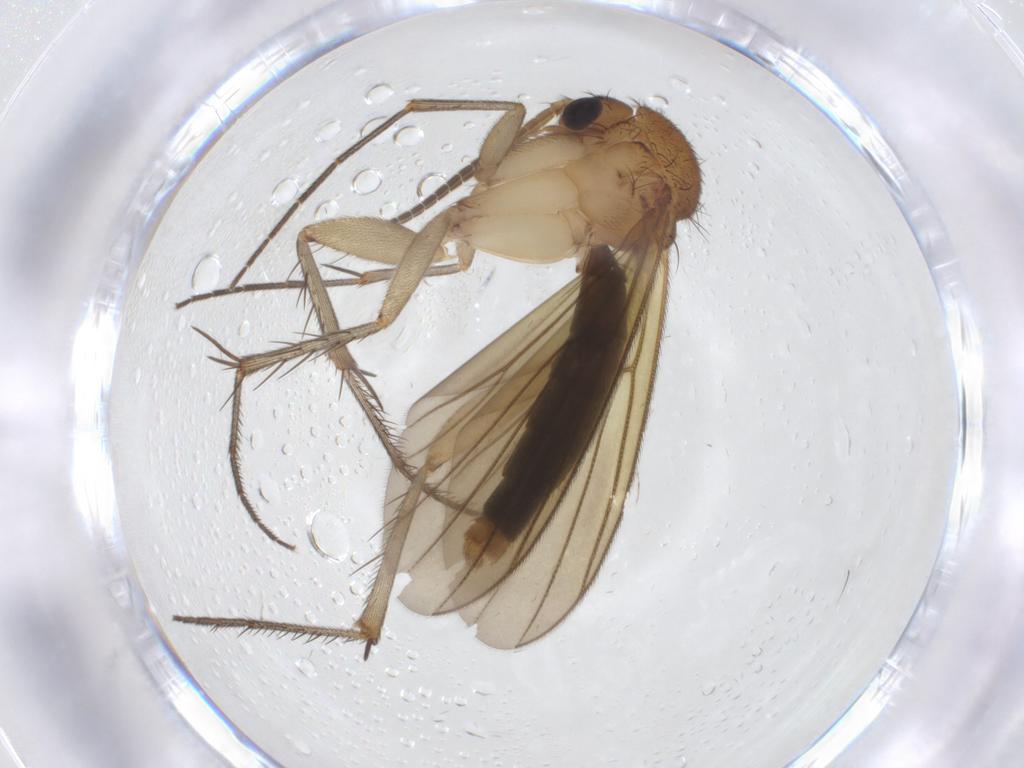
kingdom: Animalia
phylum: Arthropoda
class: Insecta
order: Diptera
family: Mycetophilidae
